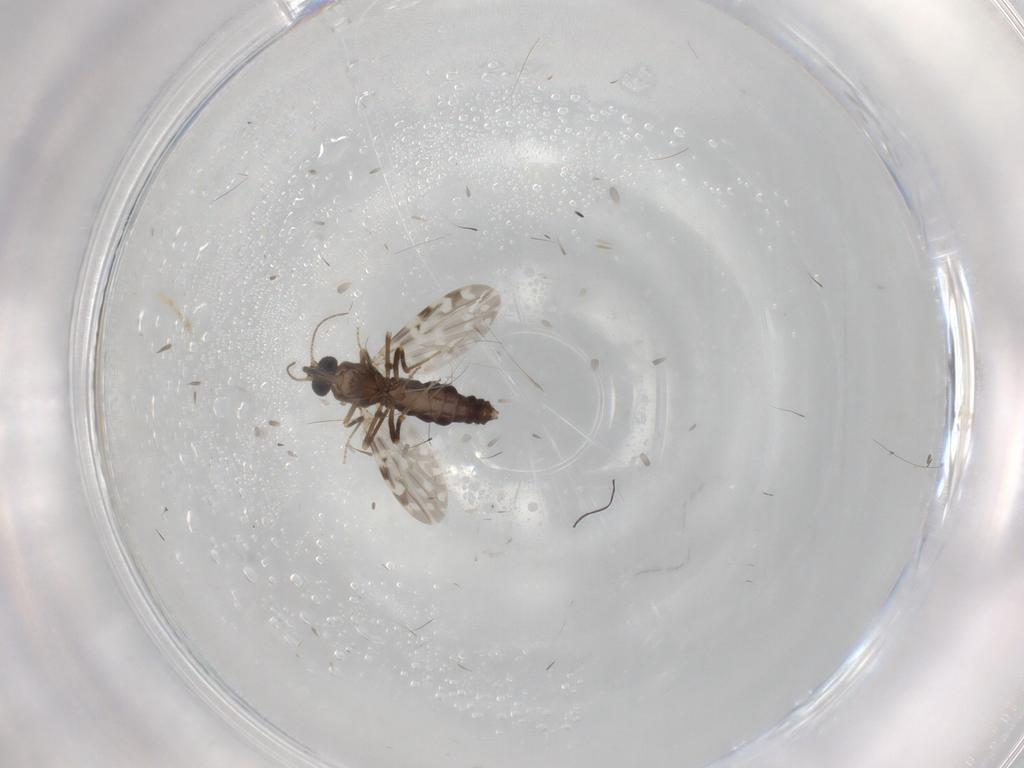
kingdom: Animalia
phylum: Arthropoda
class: Insecta
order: Diptera
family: Ceratopogonidae
